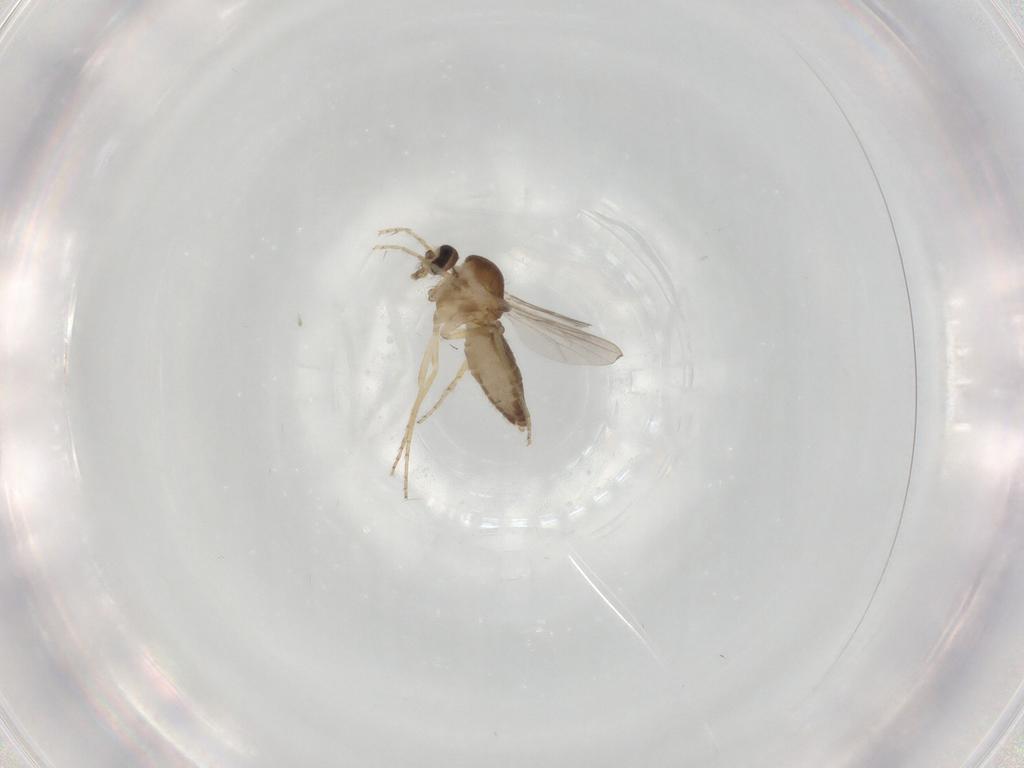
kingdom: Animalia
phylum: Arthropoda
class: Insecta
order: Diptera
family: Ceratopogonidae
